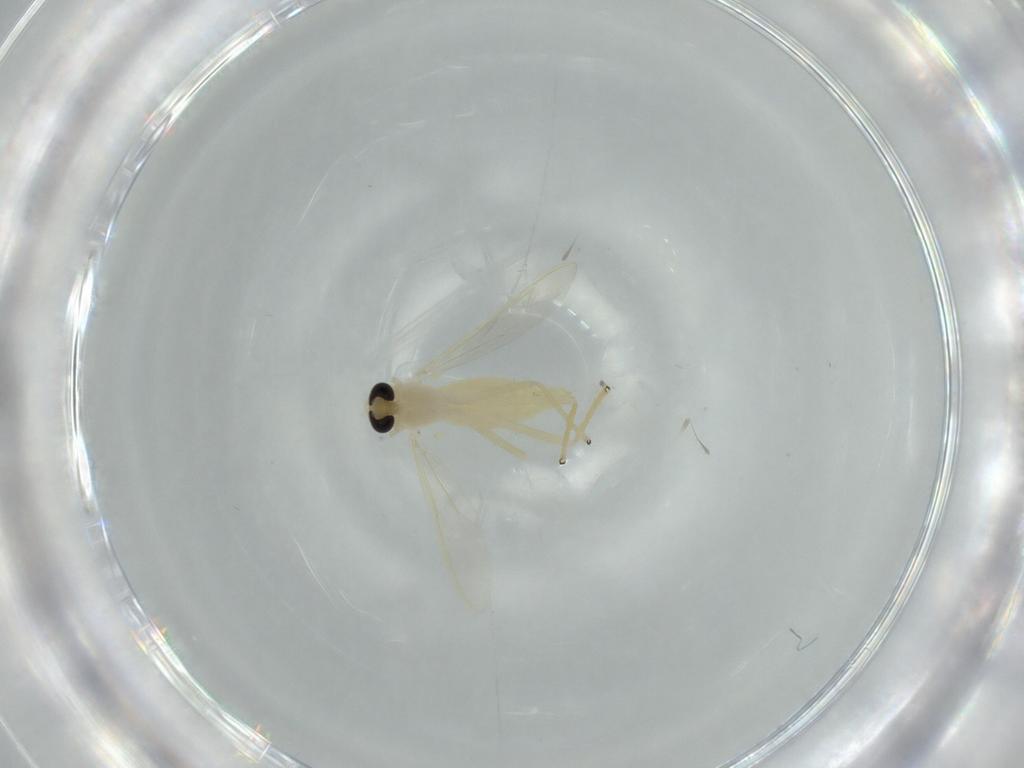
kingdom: Animalia
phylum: Arthropoda
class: Insecta
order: Diptera
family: Chironomidae
